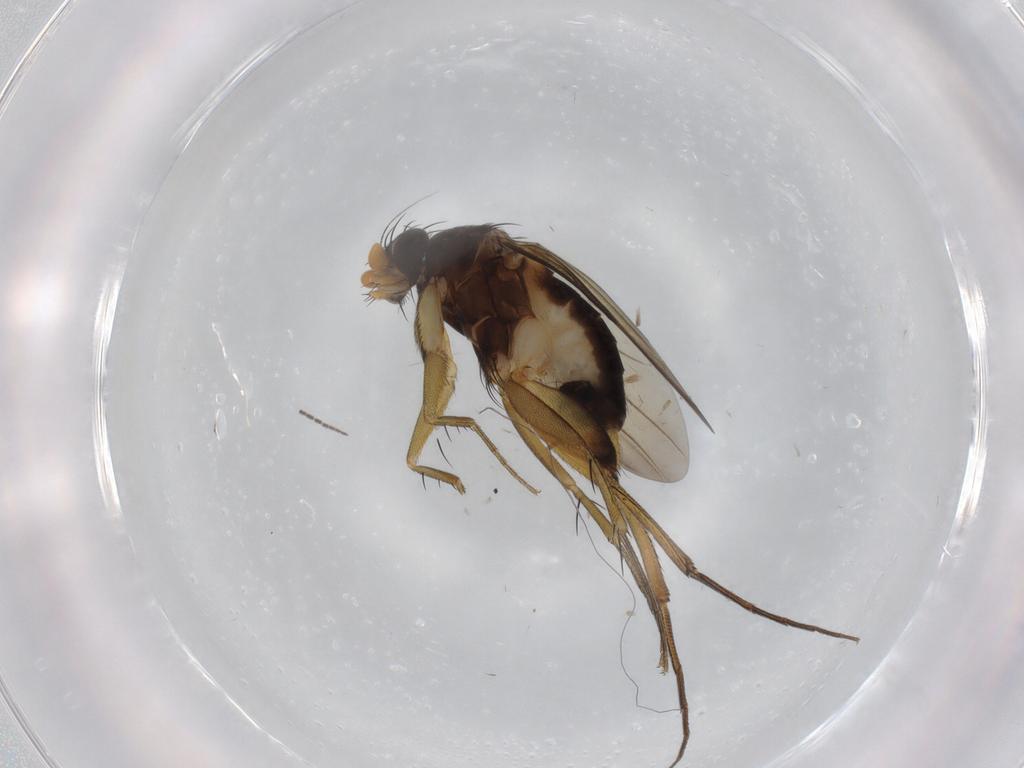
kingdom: Animalia
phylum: Arthropoda
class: Insecta
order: Diptera
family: Phoridae
